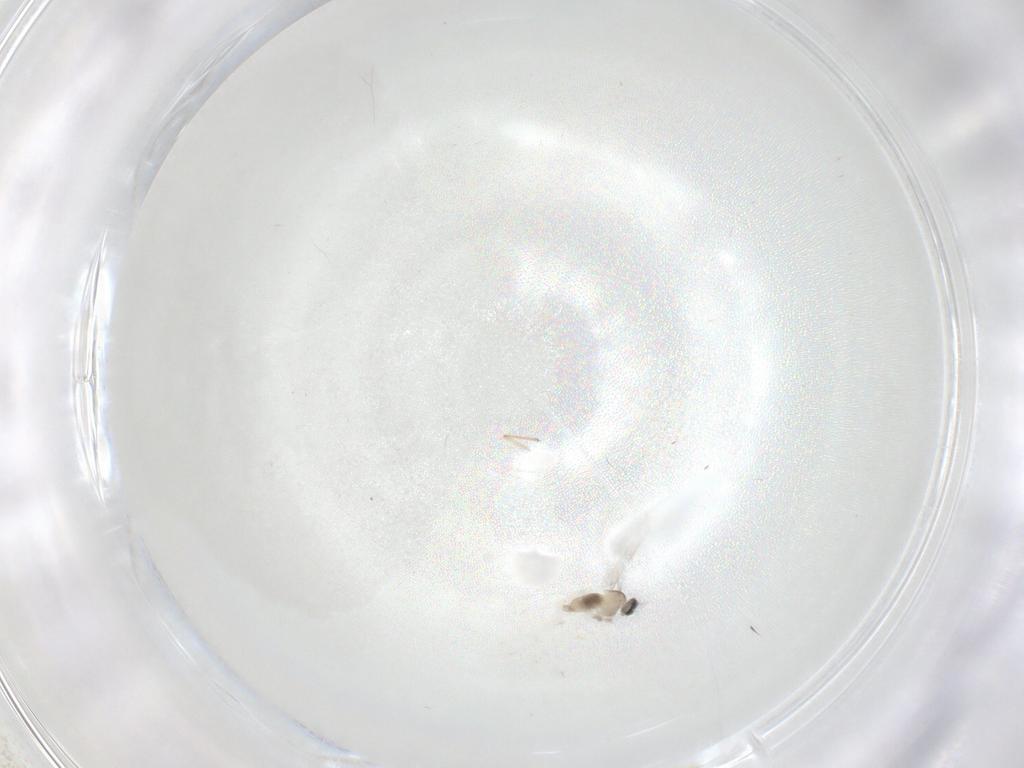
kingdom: Animalia
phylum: Arthropoda
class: Insecta
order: Diptera
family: Cecidomyiidae
